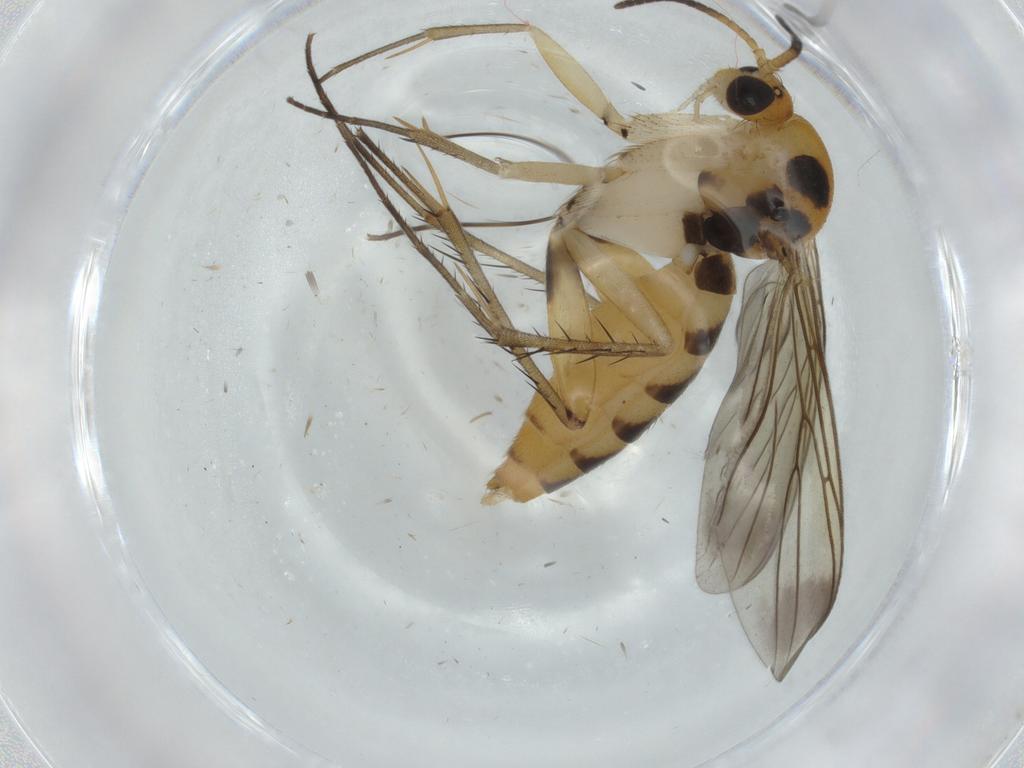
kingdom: Animalia
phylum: Arthropoda
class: Insecta
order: Diptera
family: Mycetophilidae
